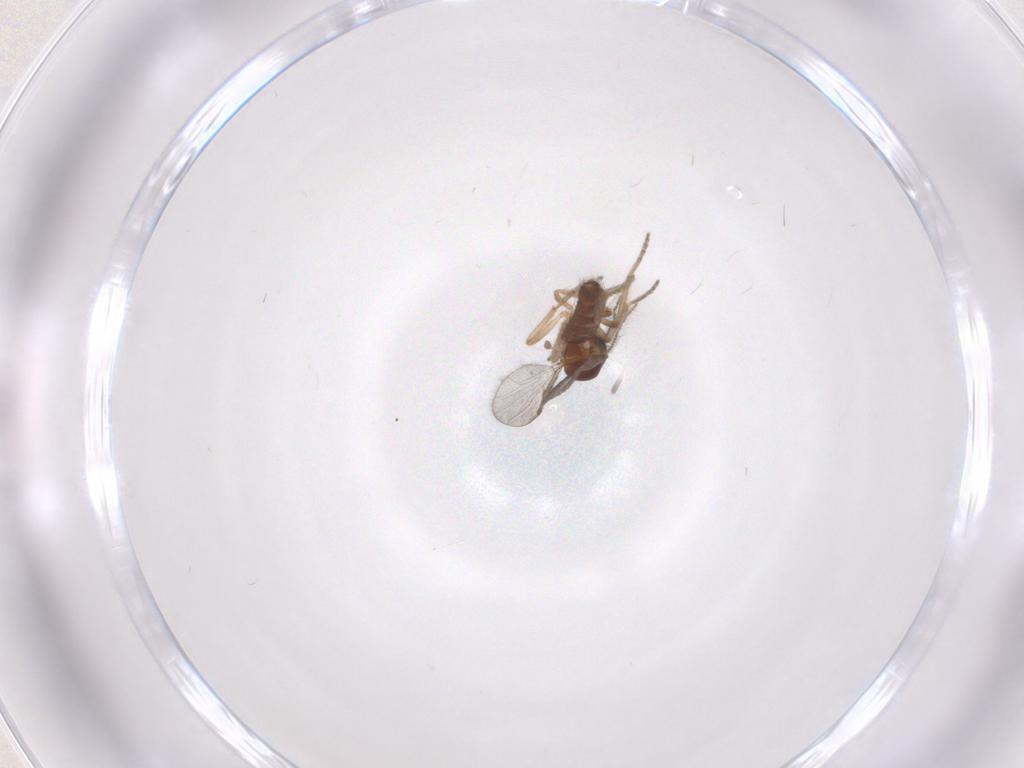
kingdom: Animalia
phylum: Arthropoda
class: Insecta
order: Diptera
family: Ceratopogonidae
